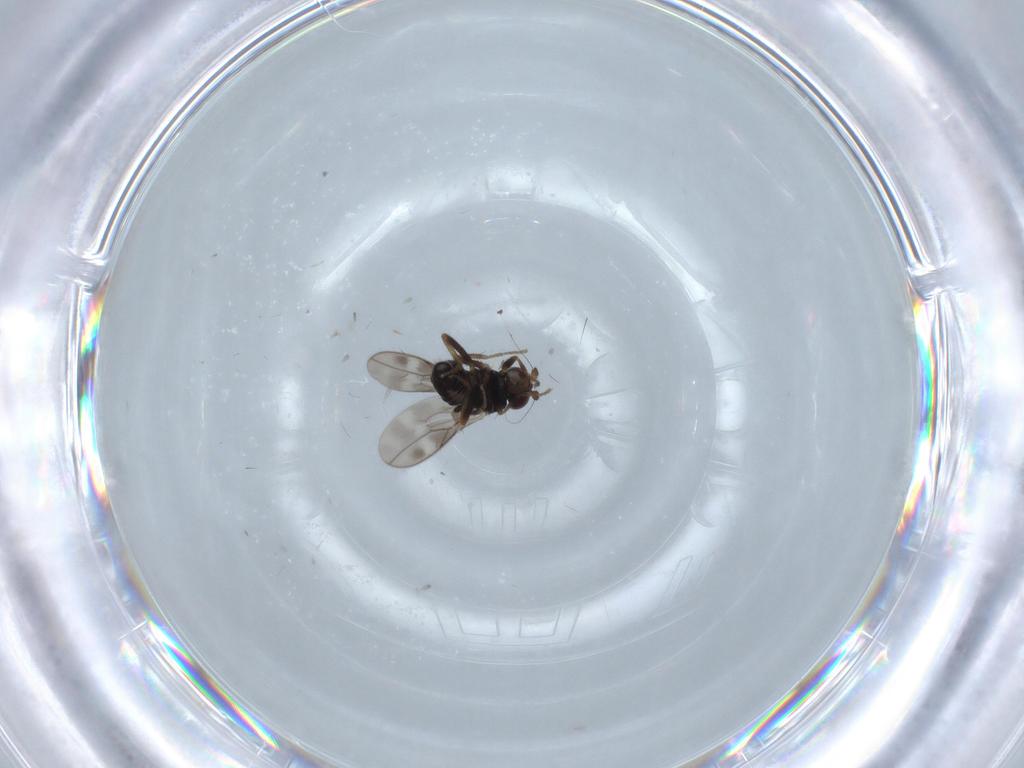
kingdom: Animalia
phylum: Arthropoda
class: Insecta
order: Diptera
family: Sphaeroceridae
